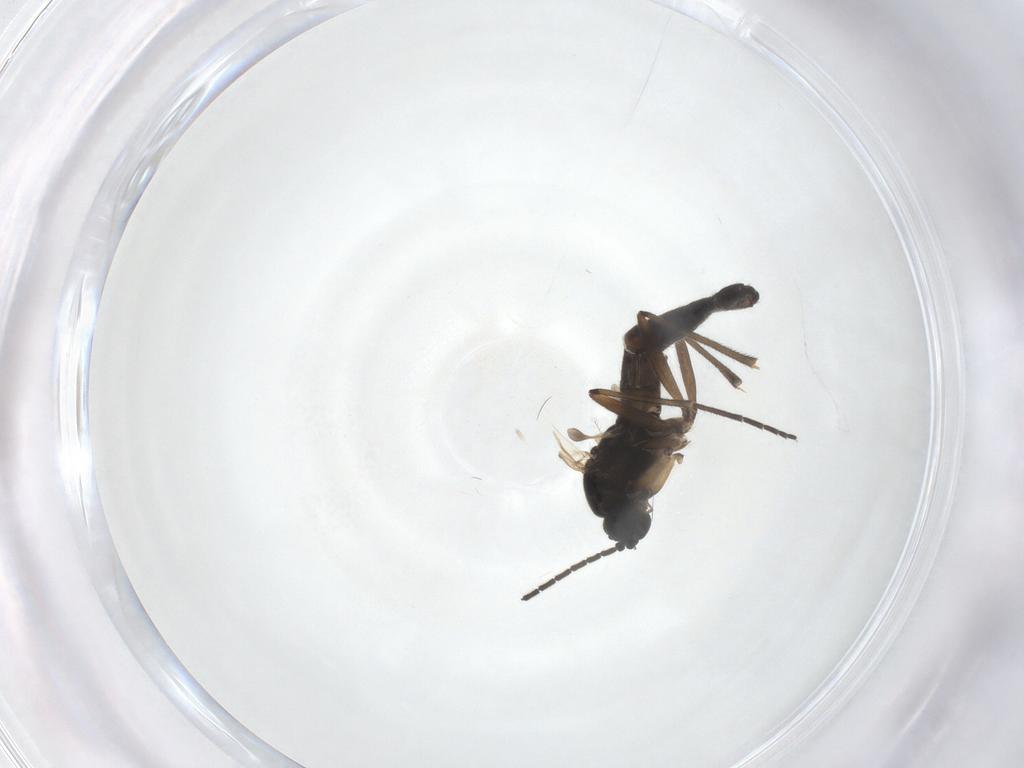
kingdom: Animalia
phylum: Arthropoda
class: Insecta
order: Diptera
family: Sciaridae
